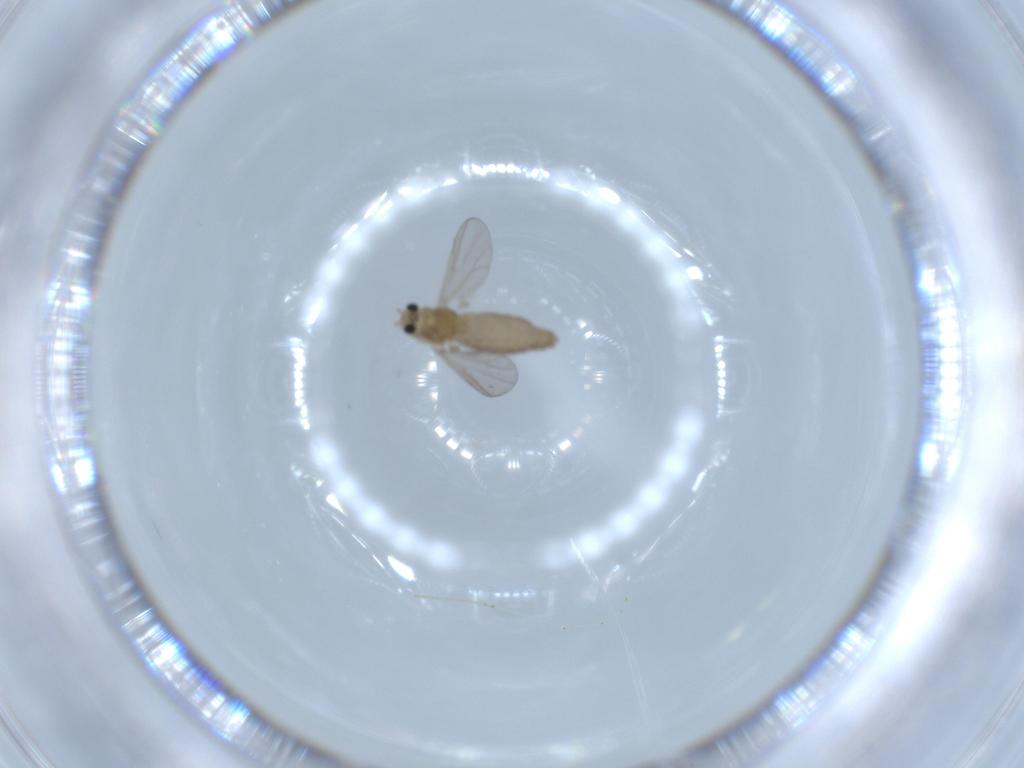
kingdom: Animalia
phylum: Arthropoda
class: Insecta
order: Diptera
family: Chironomidae
